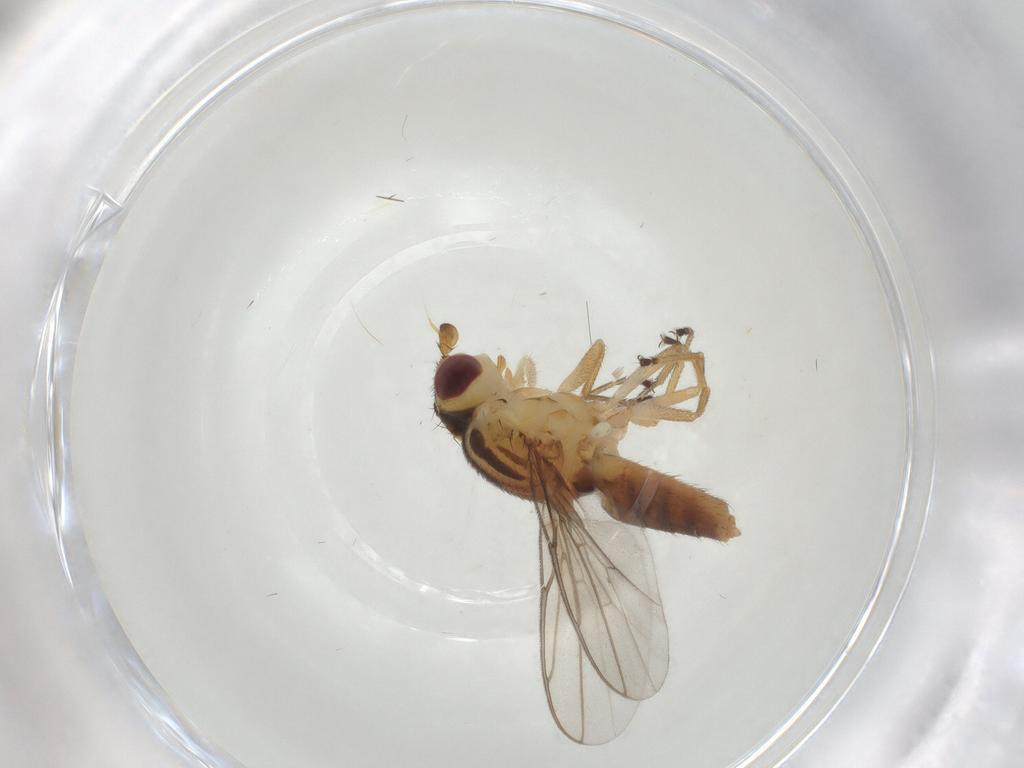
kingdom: Animalia
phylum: Arthropoda
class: Insecta
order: Diptera
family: Chloropidae
